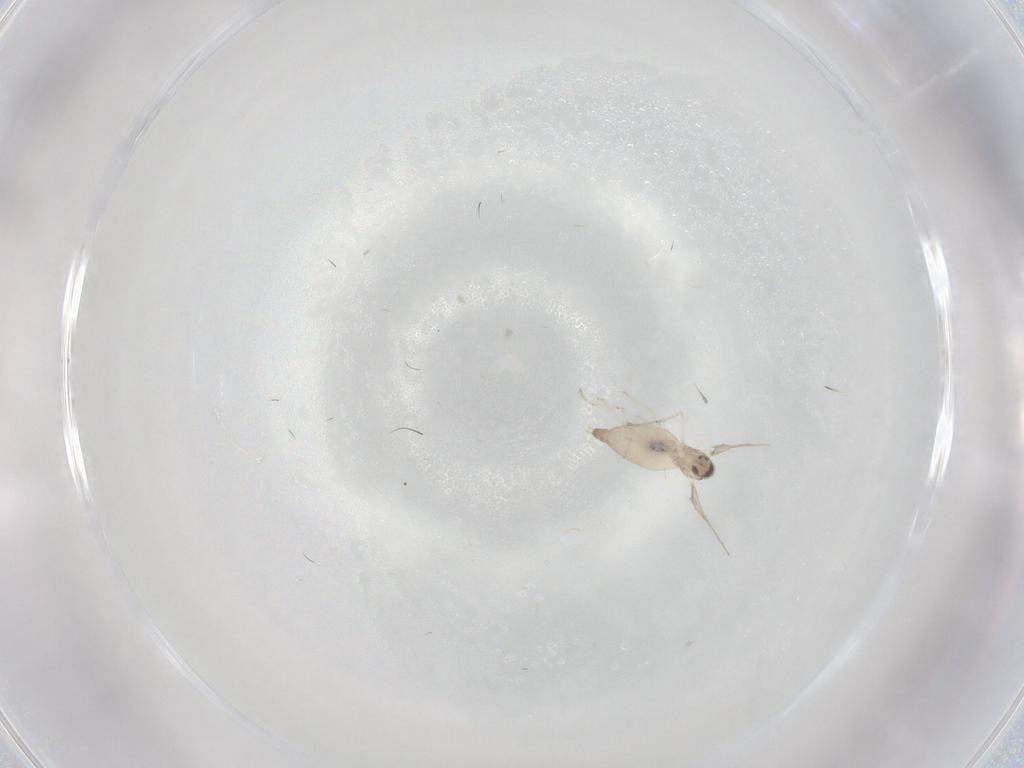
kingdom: Animalia
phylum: Arthropoda
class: Insecta
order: Diptera
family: Cecidomyiidae
